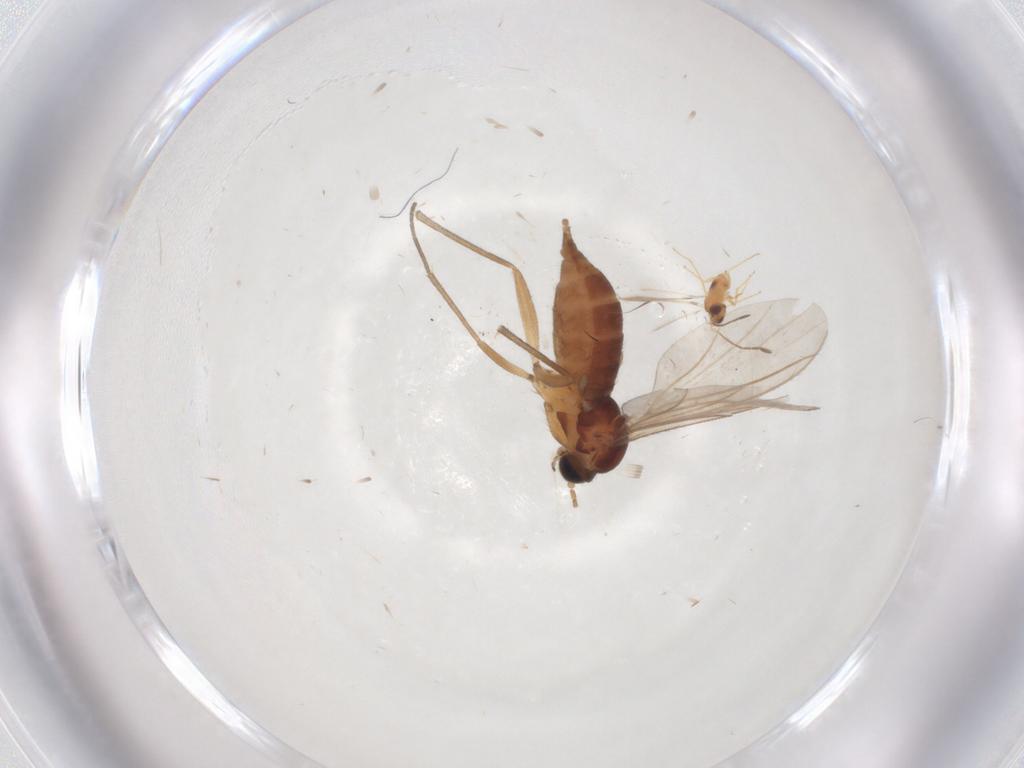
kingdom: Animalia
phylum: Arthropoda
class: Insecta
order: Diptera
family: Sciaridae
